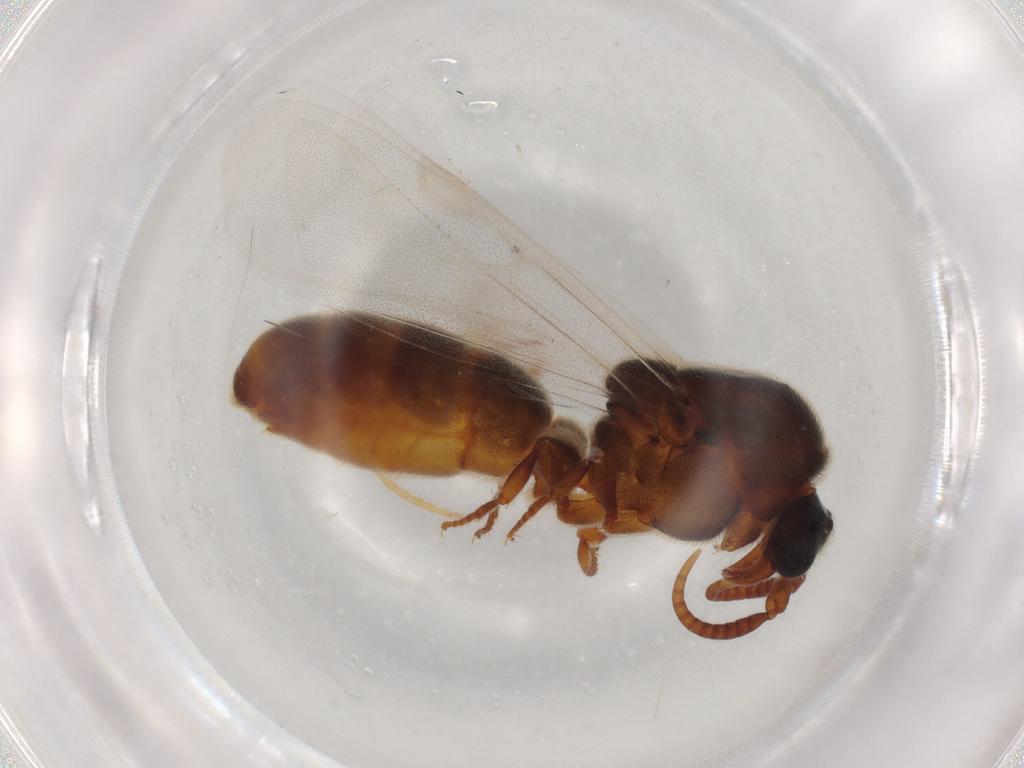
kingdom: Animalia
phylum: Arthropoda
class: Insecta
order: Hymenoptera
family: Formicidae
